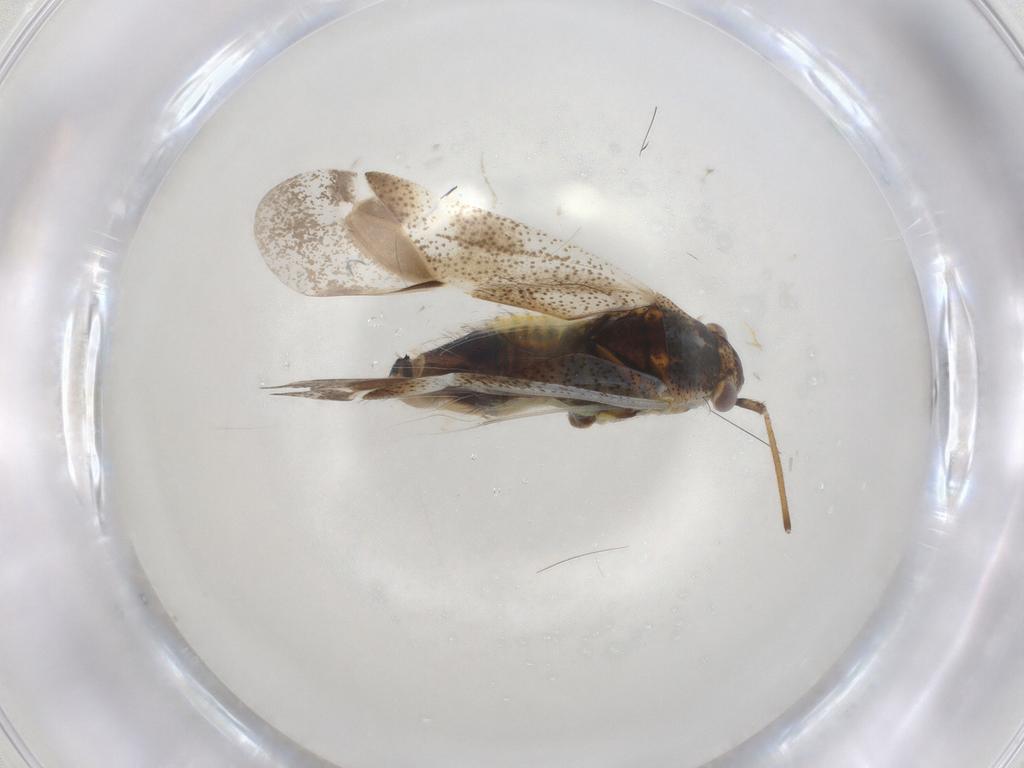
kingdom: Animalia
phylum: Arthropoda
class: Insecta
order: Hemiptera
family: Miridae
